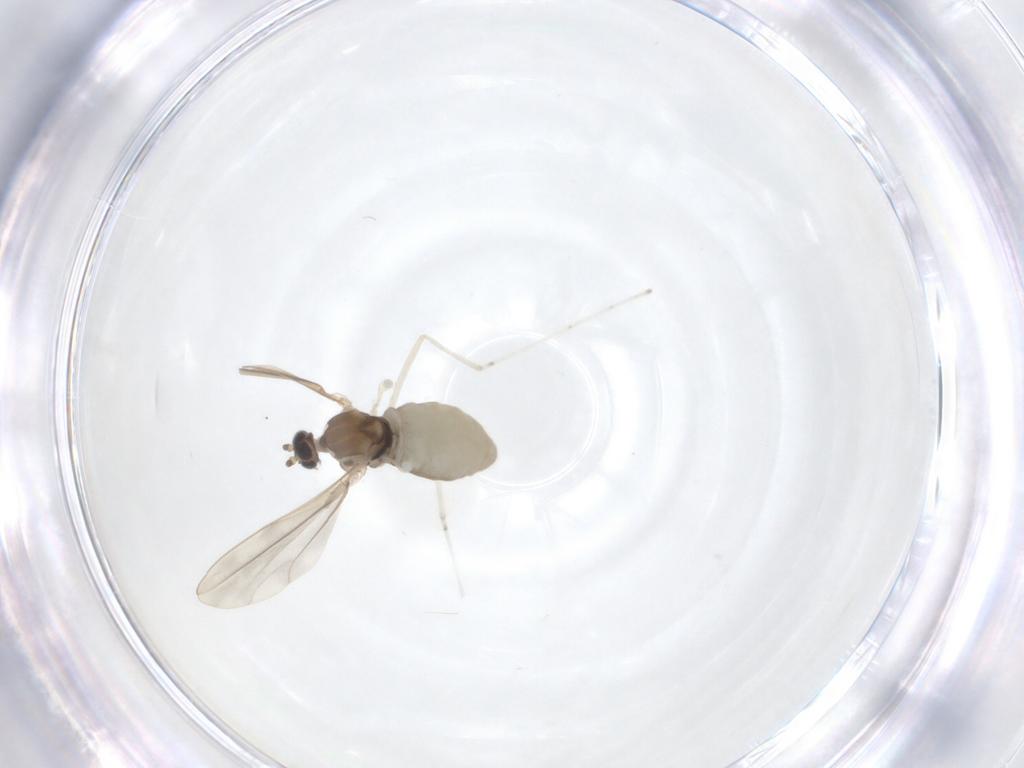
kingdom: Animalia
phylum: Arthropoda
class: Insecta
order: Diptera
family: Cecidomyiidae
